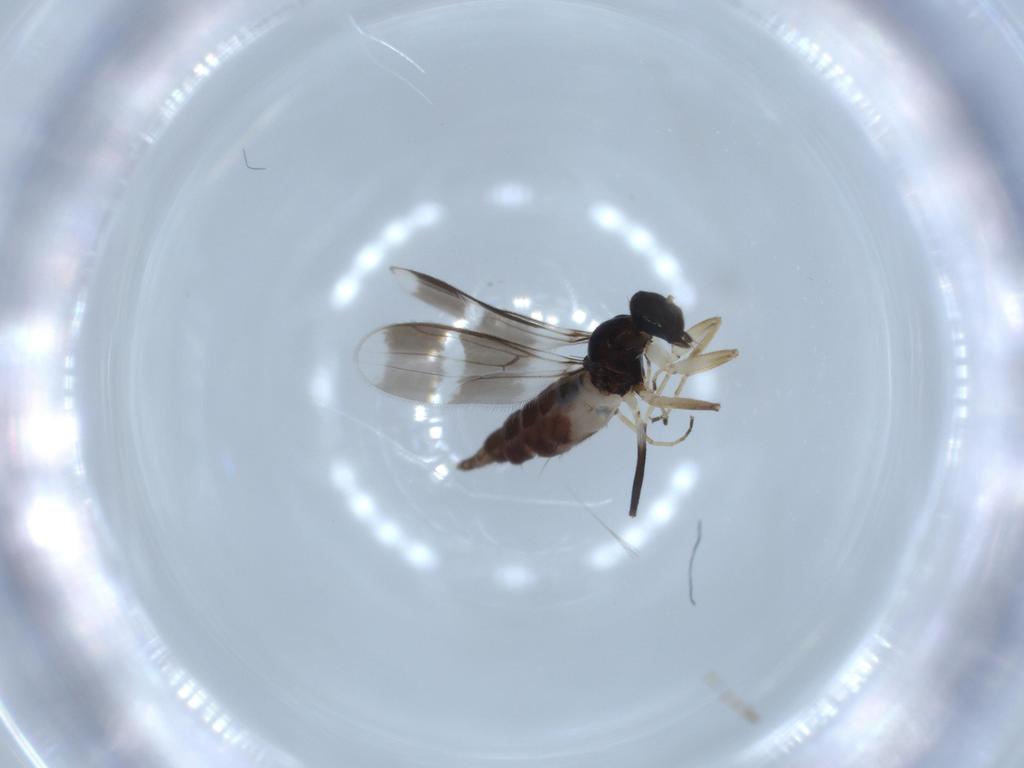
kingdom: Animalia
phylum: Arthropoda
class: Insecta
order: Diptera
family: Hybotidae
